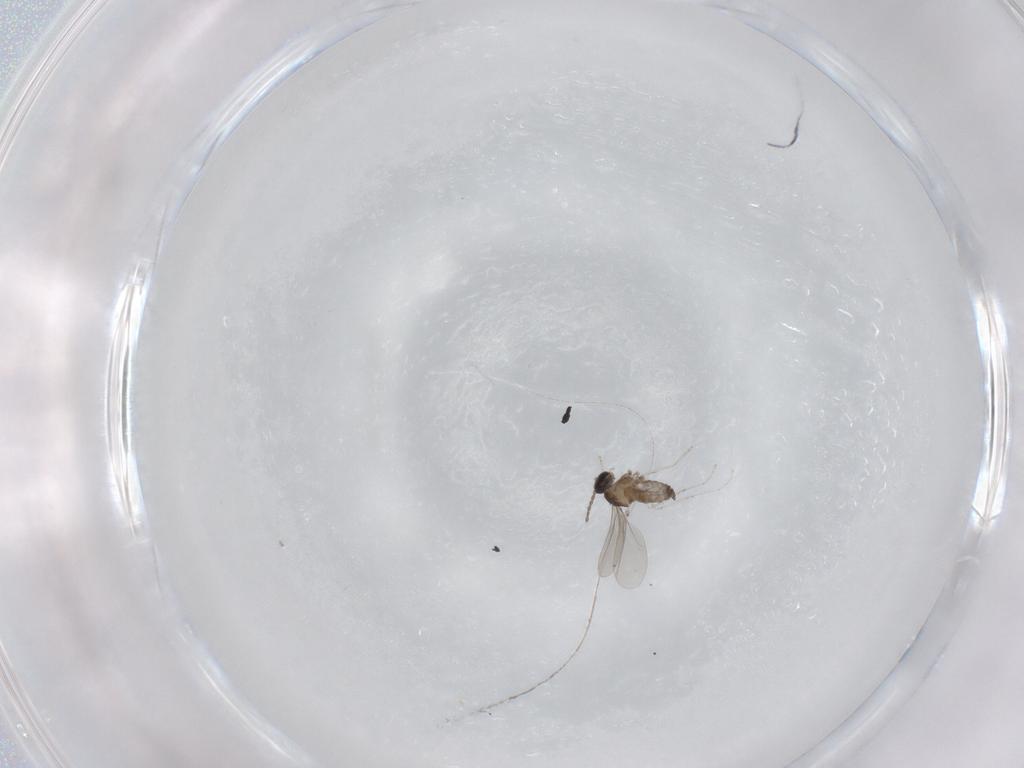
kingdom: Animalia
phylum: Arthropoda
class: Insecta
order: Diptera
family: Cecidomyiidae
